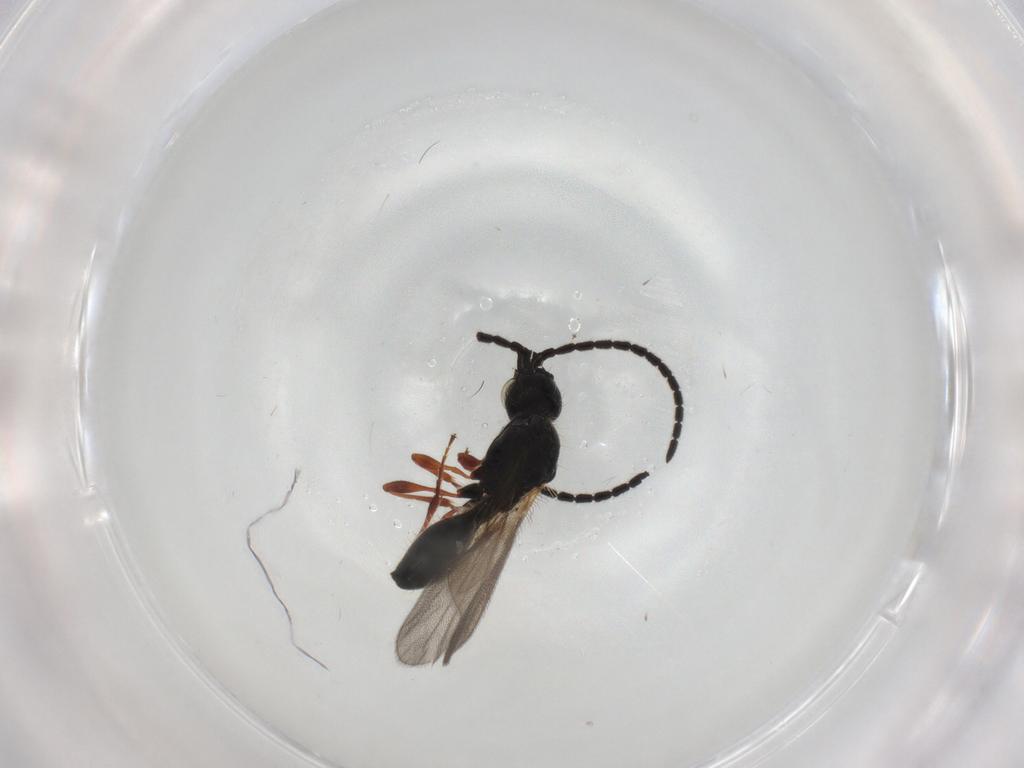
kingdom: Animalia
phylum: Arthropoda
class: Insecta
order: Hymenoptera
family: Diapriidae
